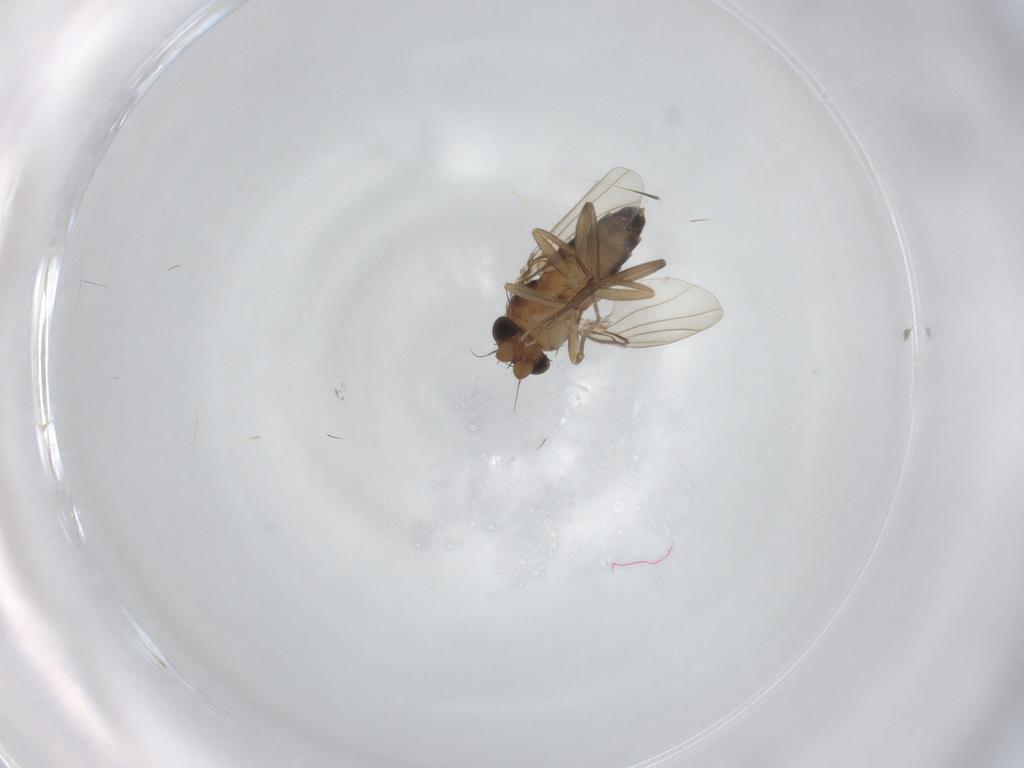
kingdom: Animalia
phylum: Arthropoda
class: Insecta
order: Diptera
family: Phoridae
